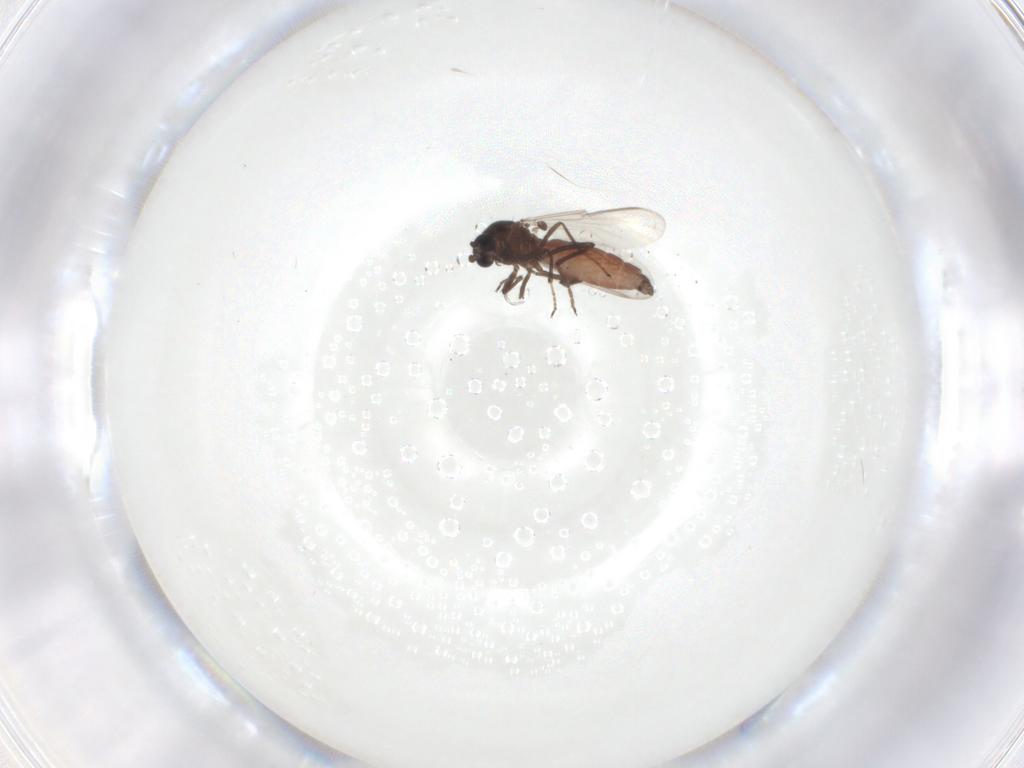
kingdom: Animalia
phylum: Arthropoda
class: Insecta
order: Diptera
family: Ceratopogonidae
